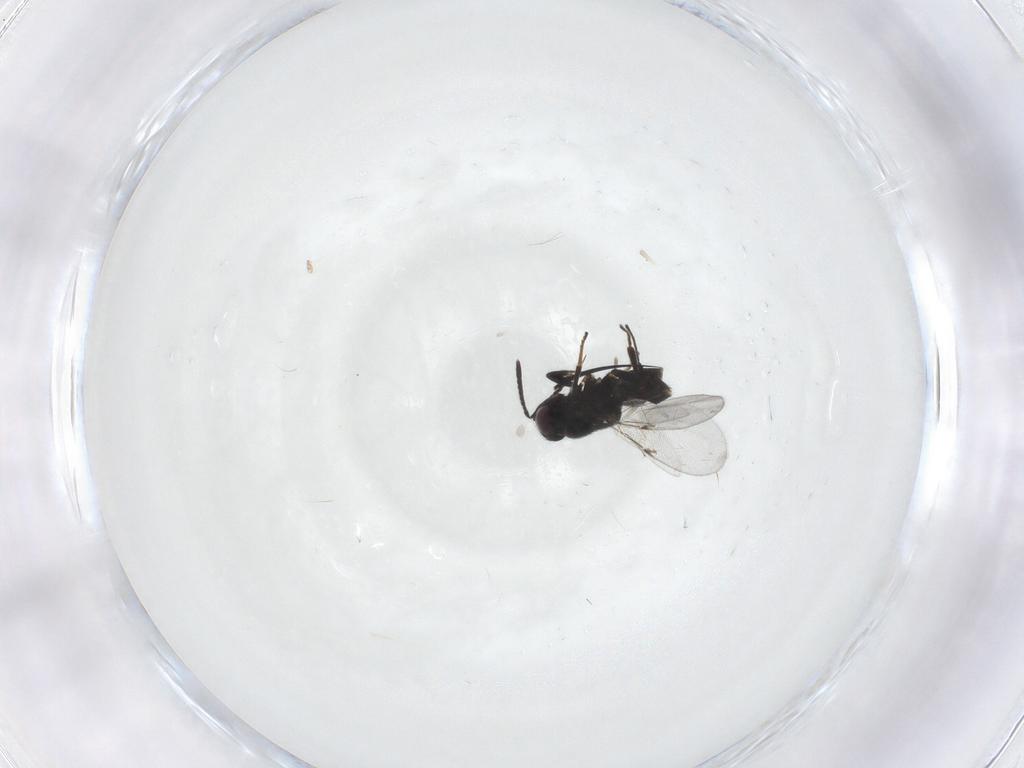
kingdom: Animalia
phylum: Arthropoda
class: Insecta
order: Hymenoptera
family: Encyrtidae
